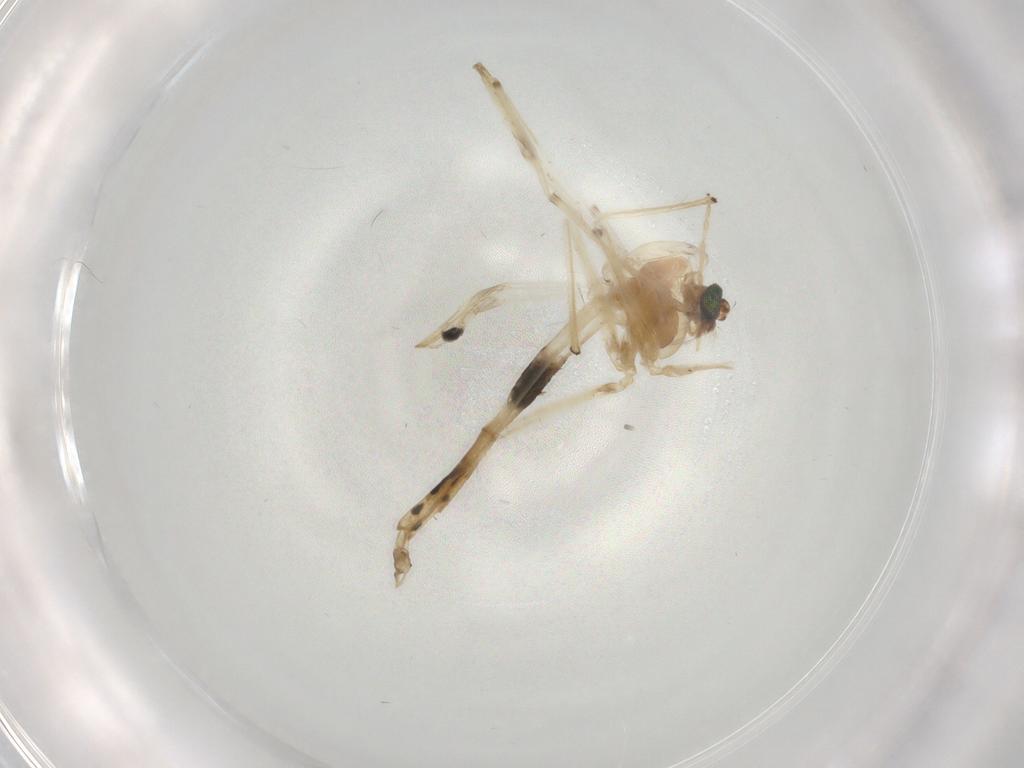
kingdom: Animalia
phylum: Arthropoda
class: Insecta
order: Diptera
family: Chironomidae
